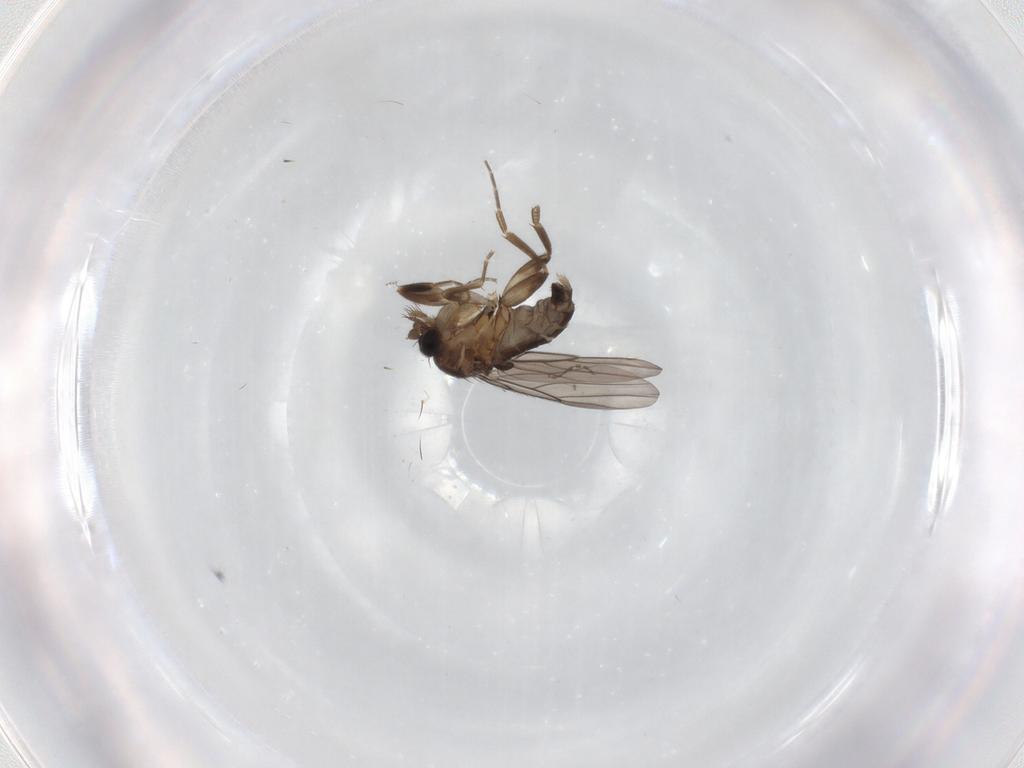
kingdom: Animalia
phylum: Arthropoda
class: Insecta
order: Diptera
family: Cecidomyiidae
